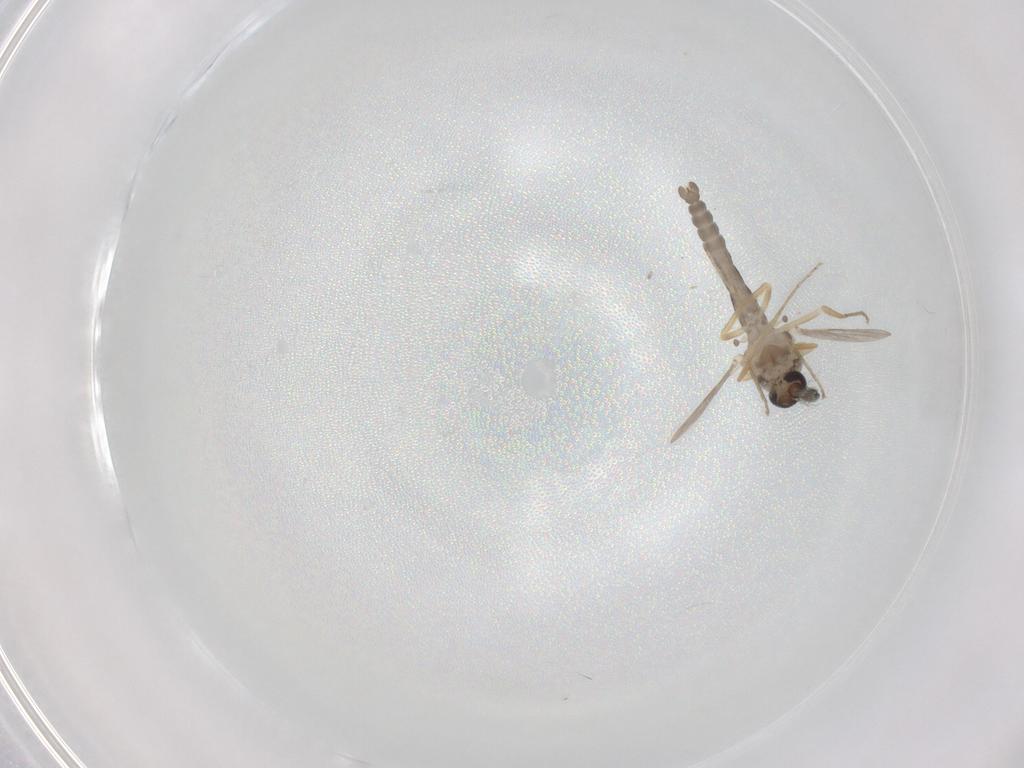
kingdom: Animalia
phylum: Arthropoda
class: Insecta
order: Diptera
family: Ceratopogonidae
